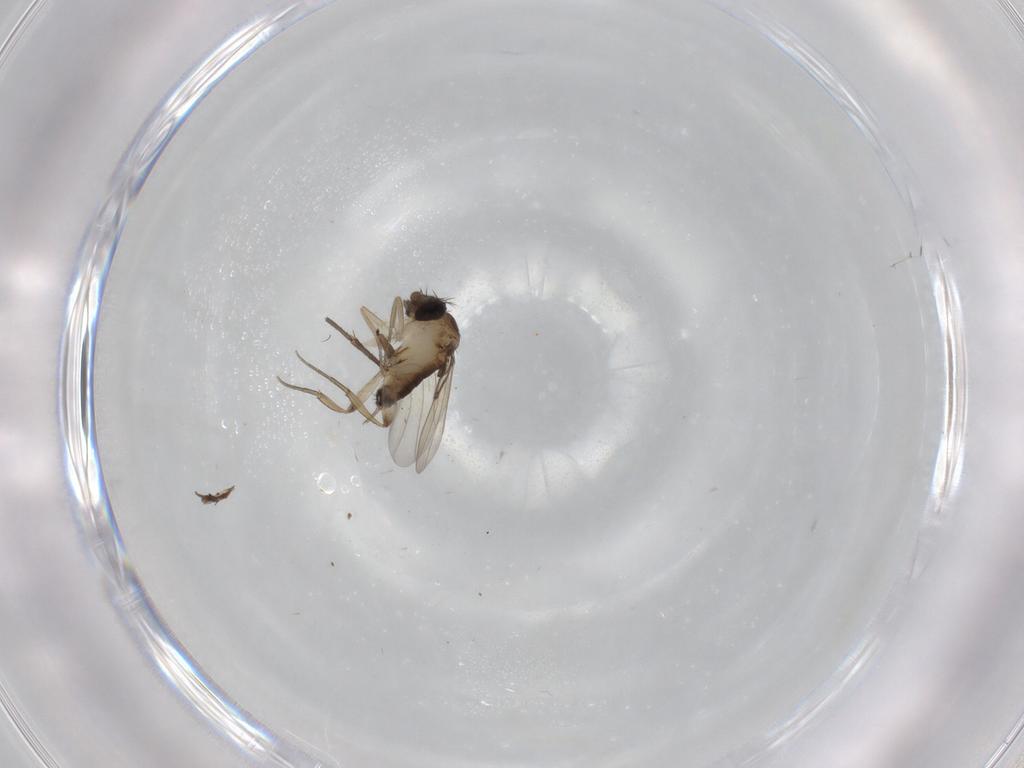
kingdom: Animalia
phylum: Arthropoda
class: Insecta
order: Diptera
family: Phoridae
